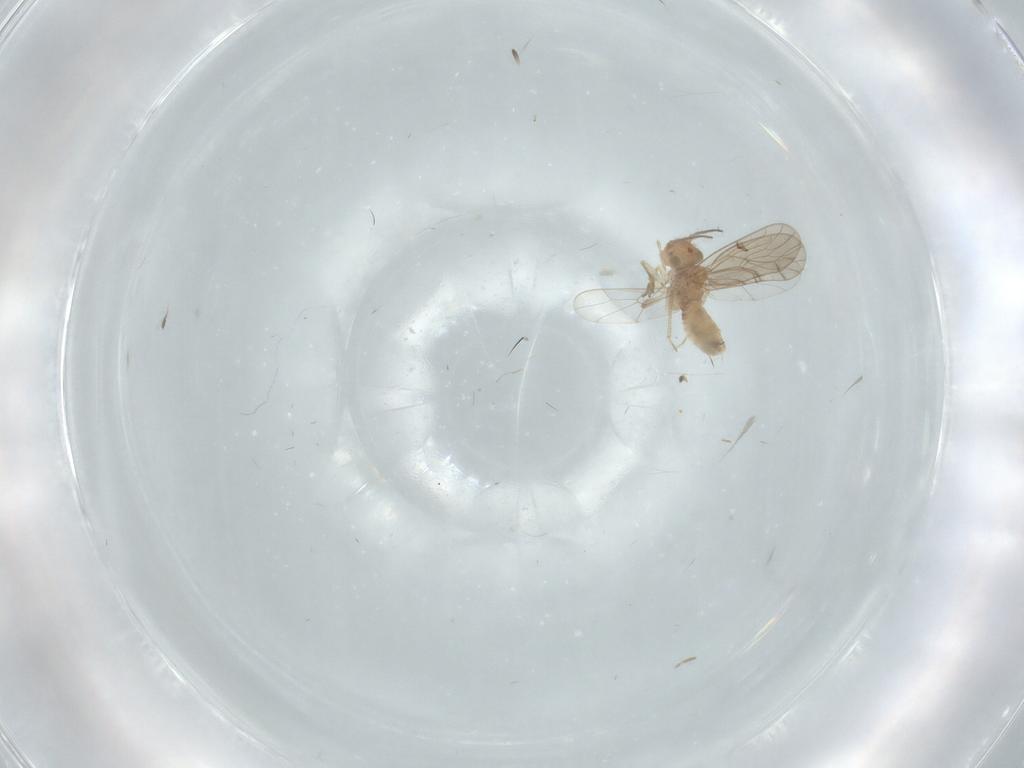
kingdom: Animalia
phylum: Arthropoda
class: Insecta
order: Psocodea
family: Ectopsocidae
